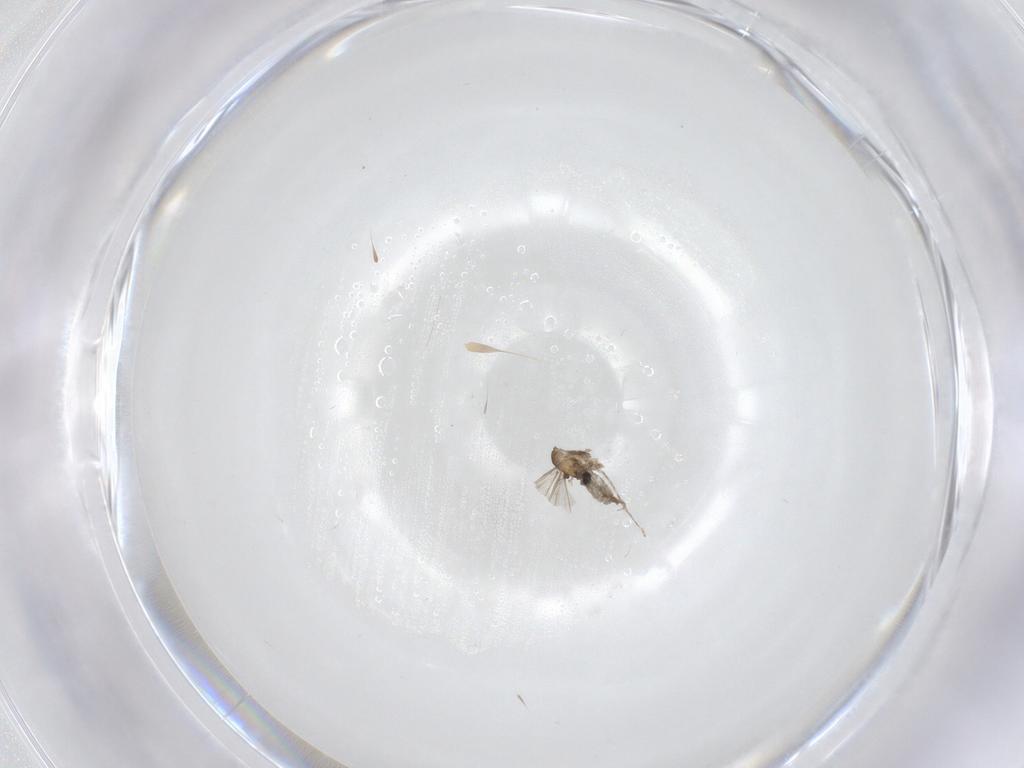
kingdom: Animalia
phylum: Arthropoda
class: Insecta
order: Diptera
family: Cecidomyiidae
